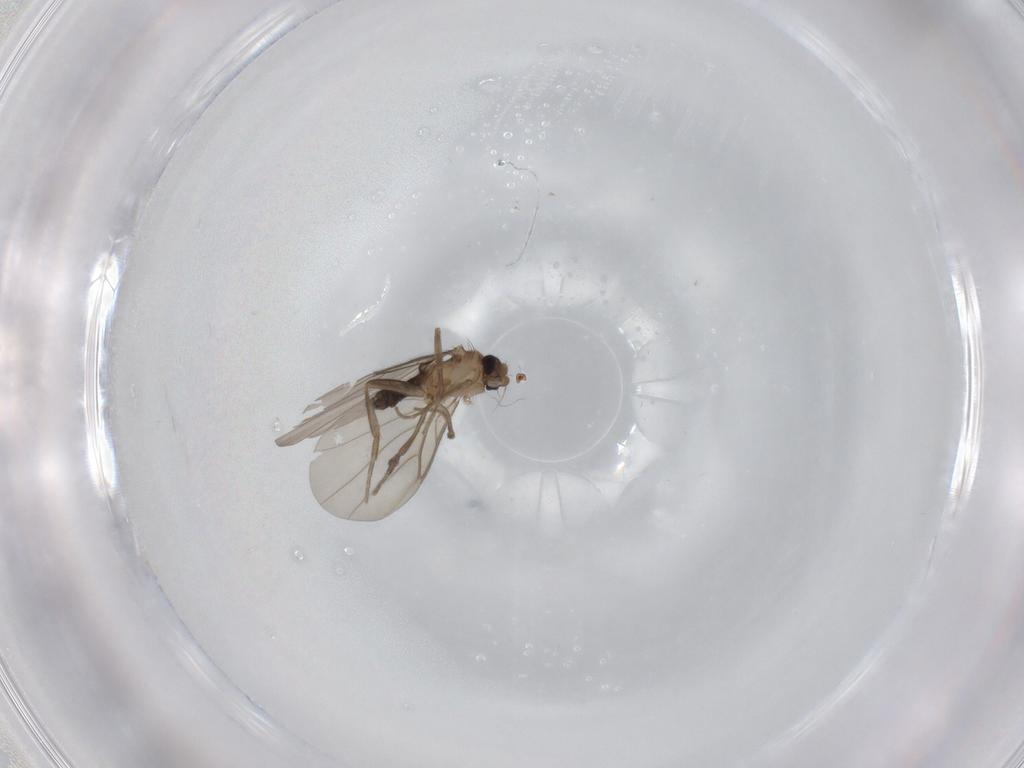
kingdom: Animalia
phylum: Arthropoda
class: Insecta
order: Diptera
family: Phoridae
